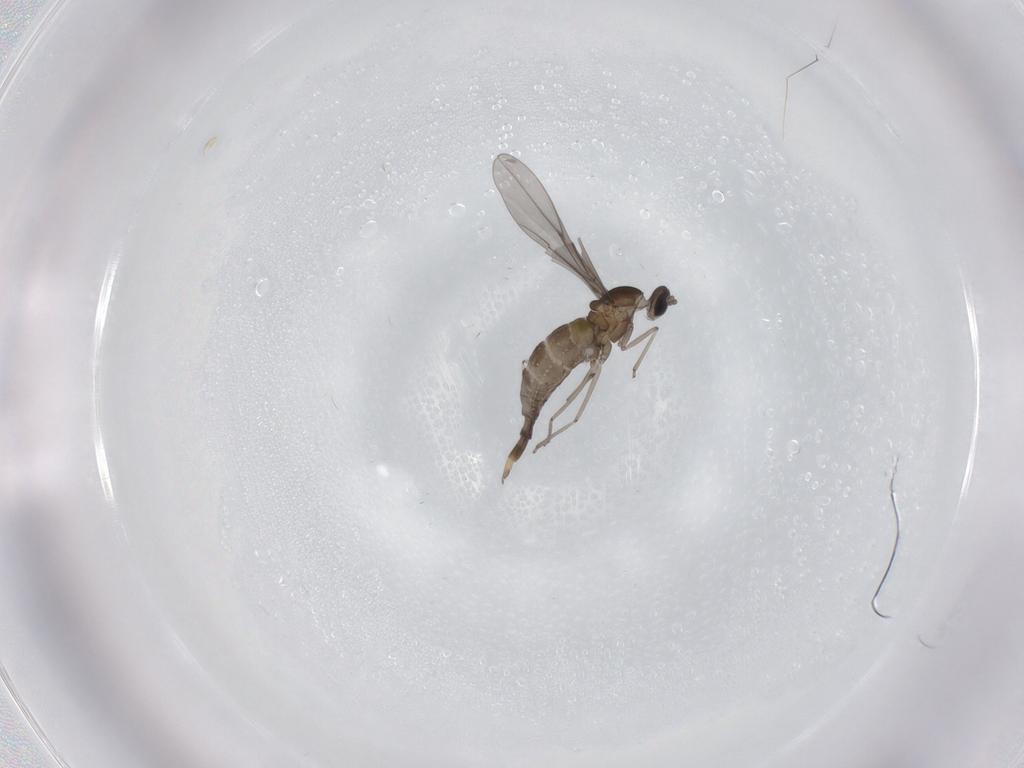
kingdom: Animalia
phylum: Arthropoda
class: Insecta
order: Diptera
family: Cecidomyiidae
